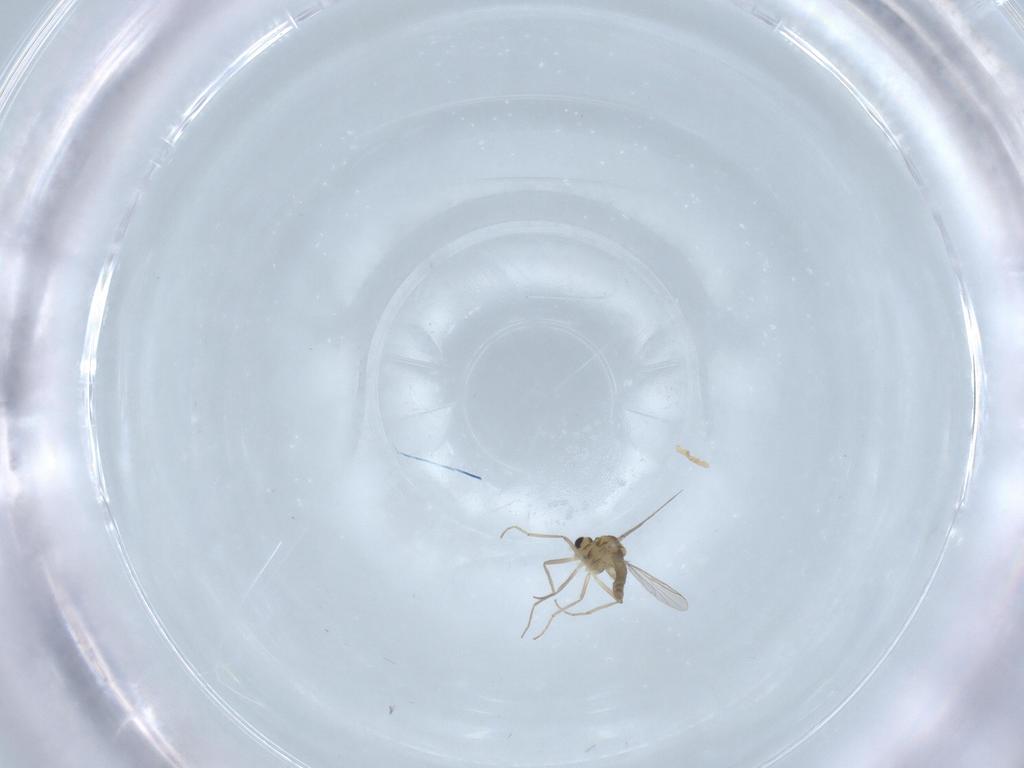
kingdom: Animalia
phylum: Arthropoda
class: Insecta
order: Diptera
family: Chironomidae
